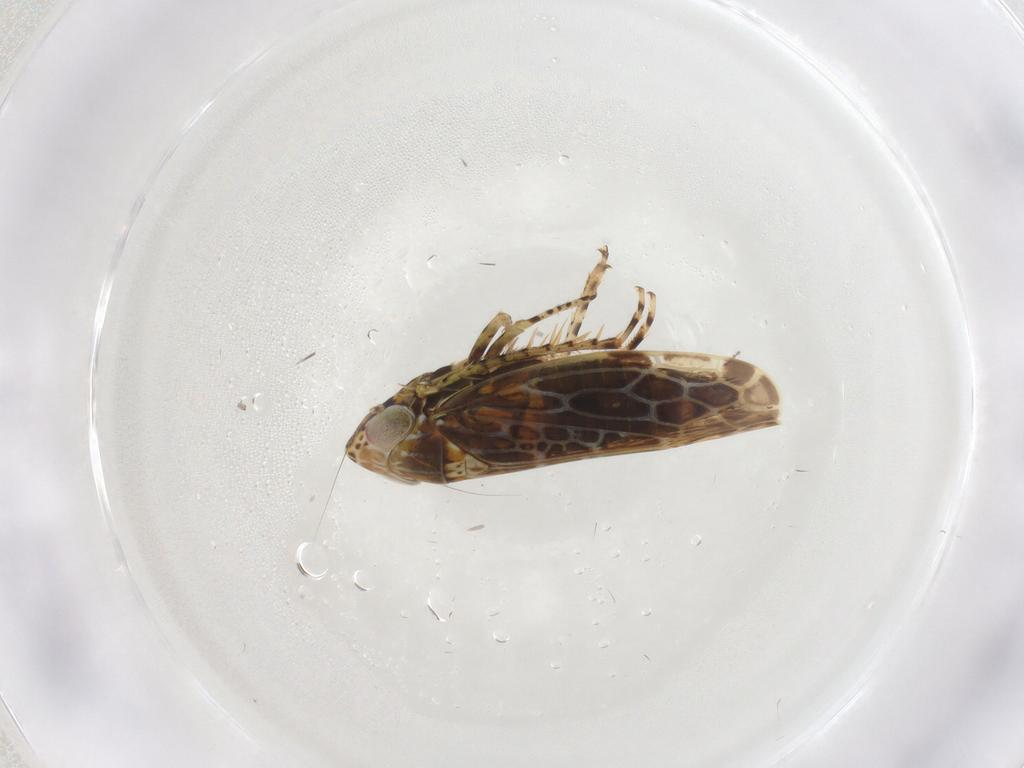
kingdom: Animalia
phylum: Arthropoda
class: Insecta
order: Hemiptera
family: Cicadellidae
